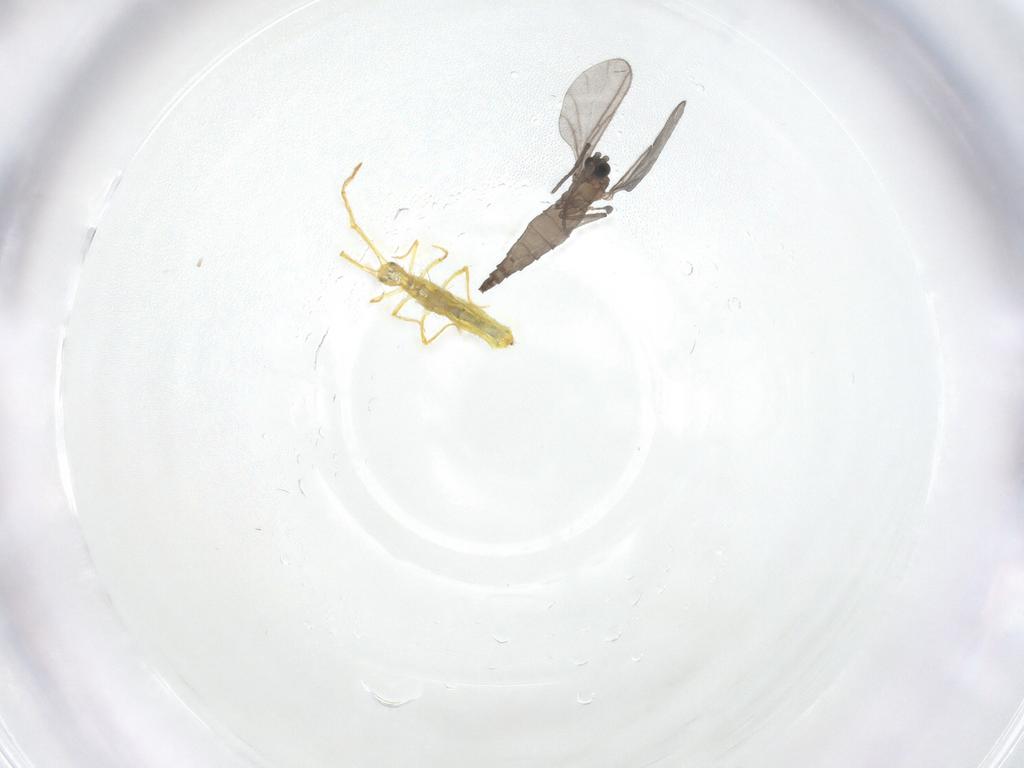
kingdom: Animalia
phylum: Arthropoda
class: Collembola
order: Entomobryomorpha
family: Paronellidae
